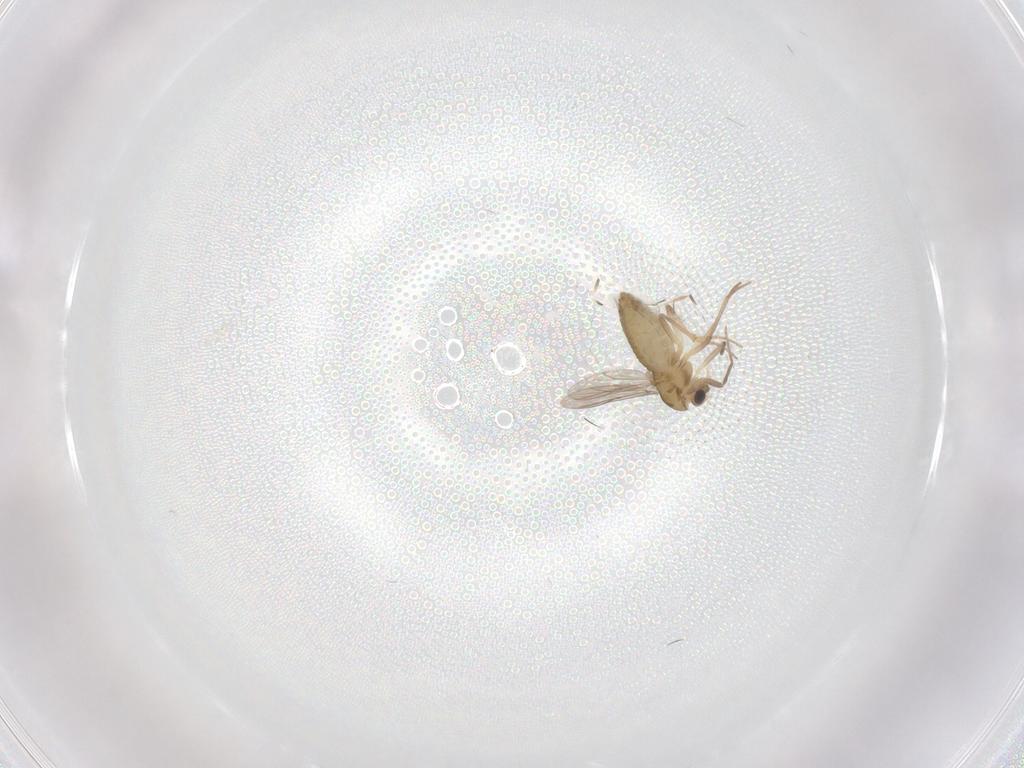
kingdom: Animalia
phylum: Arthropoda
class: Insecta
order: Diptera
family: Chironomidae
